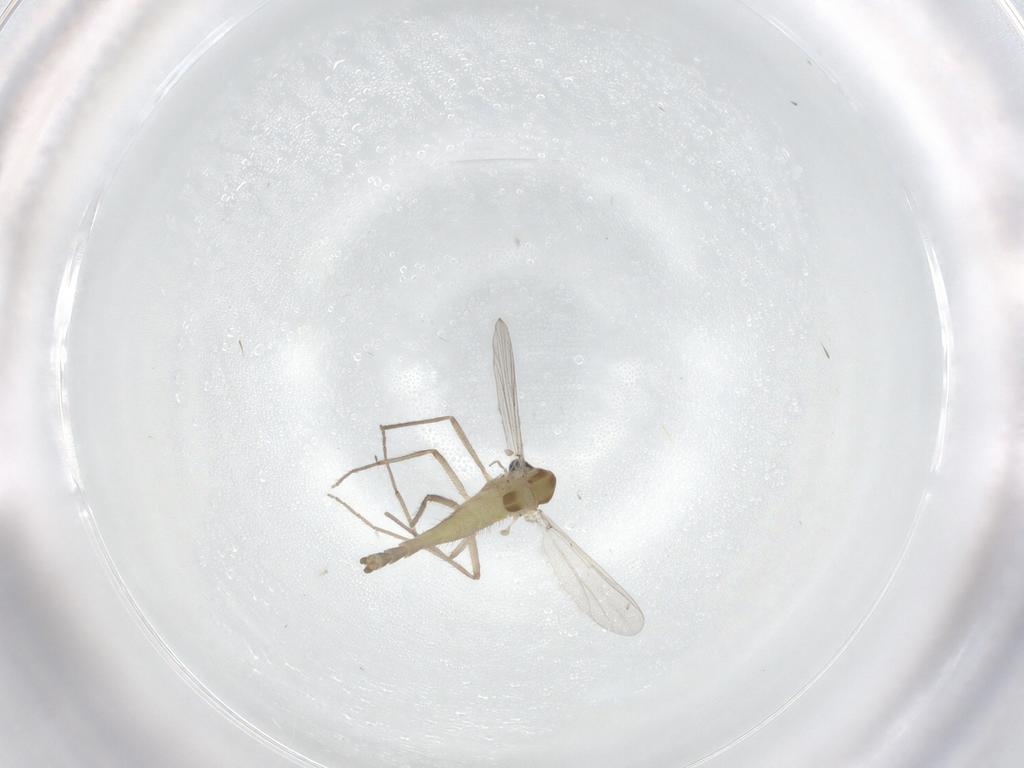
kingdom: Animalia
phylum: Arthropoda
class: Insecta
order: Diptera
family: Chironomidae
